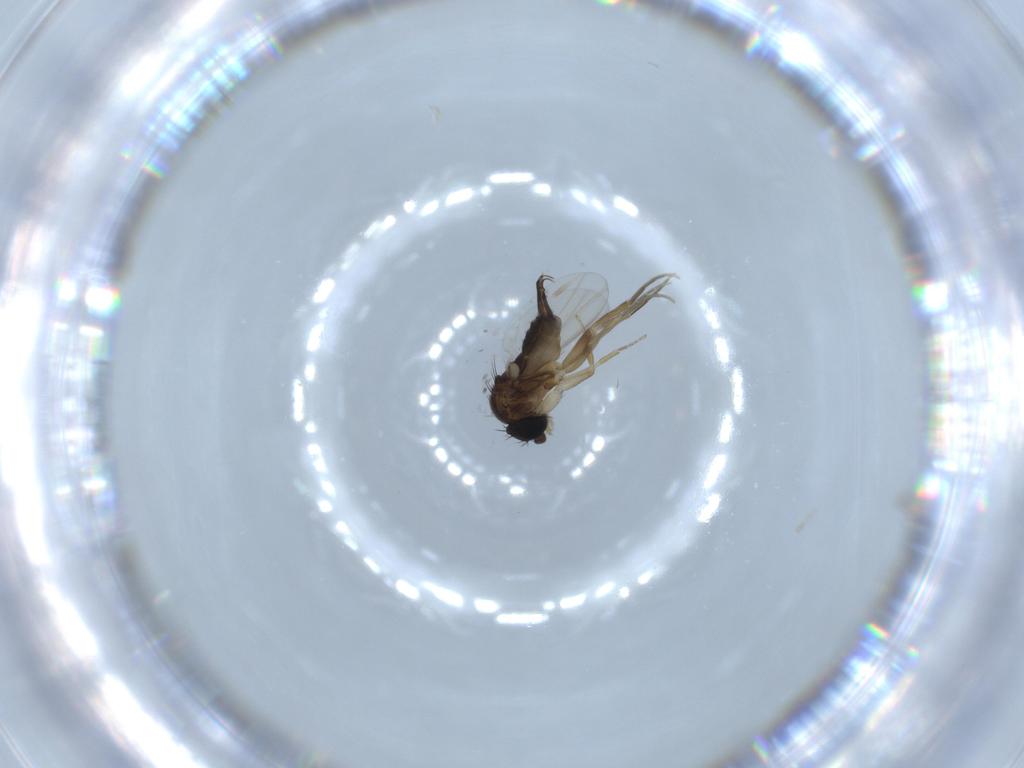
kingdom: Animalia
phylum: Arthropoda
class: Insecta
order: Diptera
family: Phoridae
